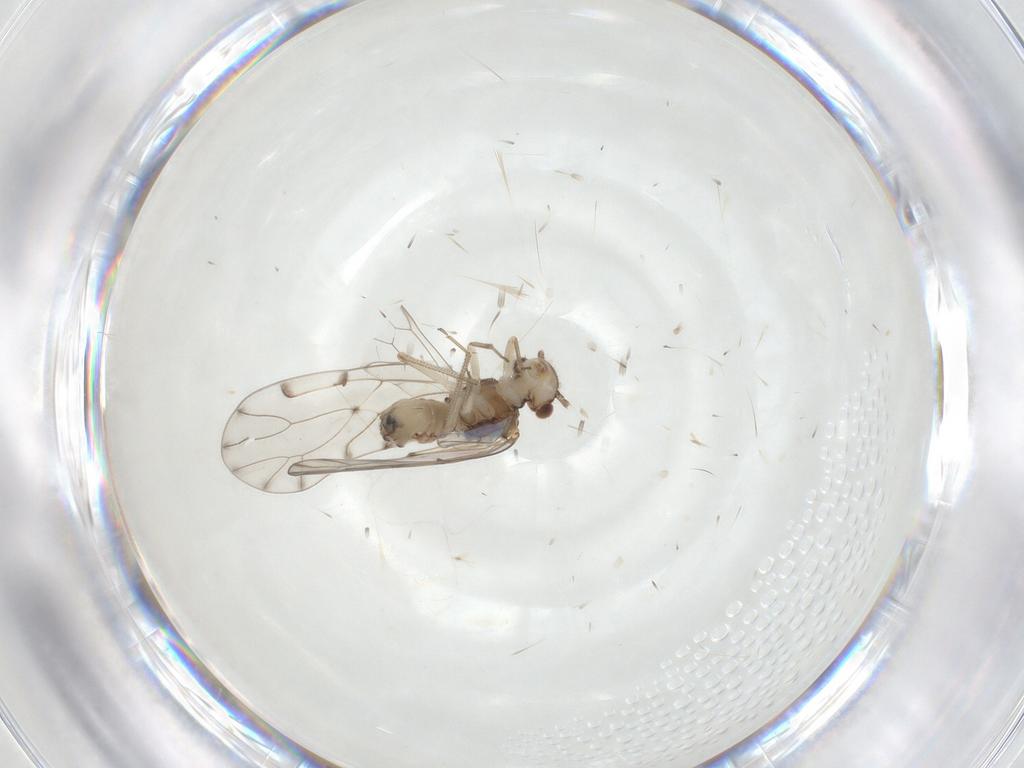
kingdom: Animalia
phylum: Arthropoda
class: Insecta
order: Psocodea
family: Ectopsocidae
